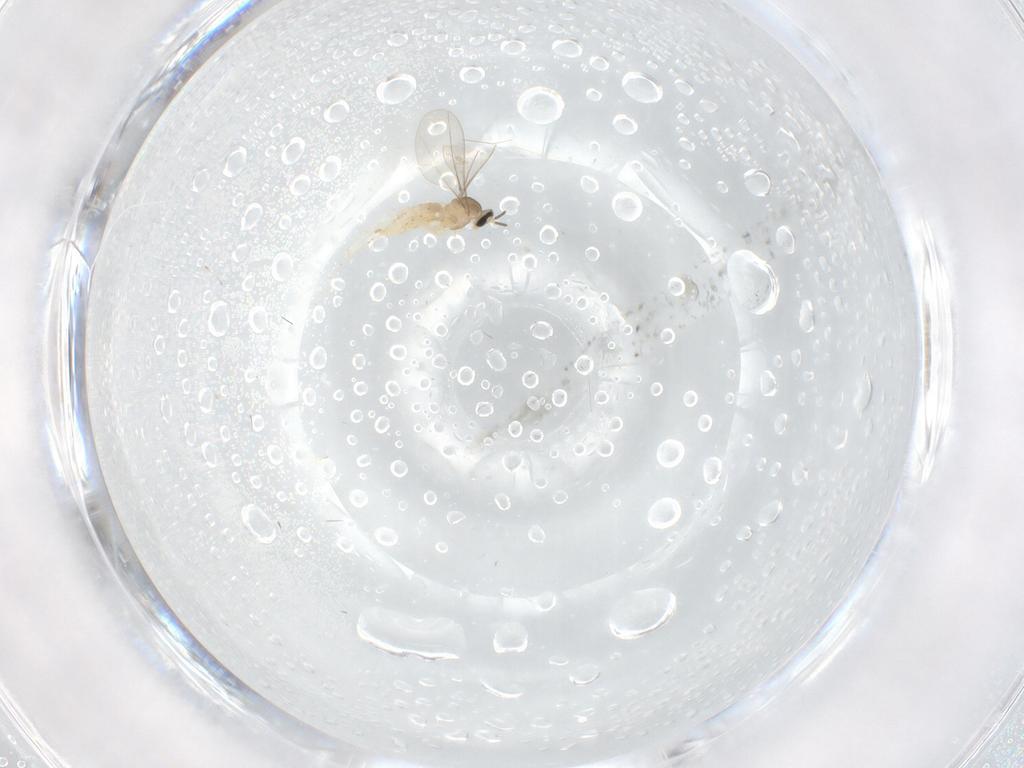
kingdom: Animalia
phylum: Arthropoda
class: Insecta
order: Diptera
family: Cecidomyiidae
